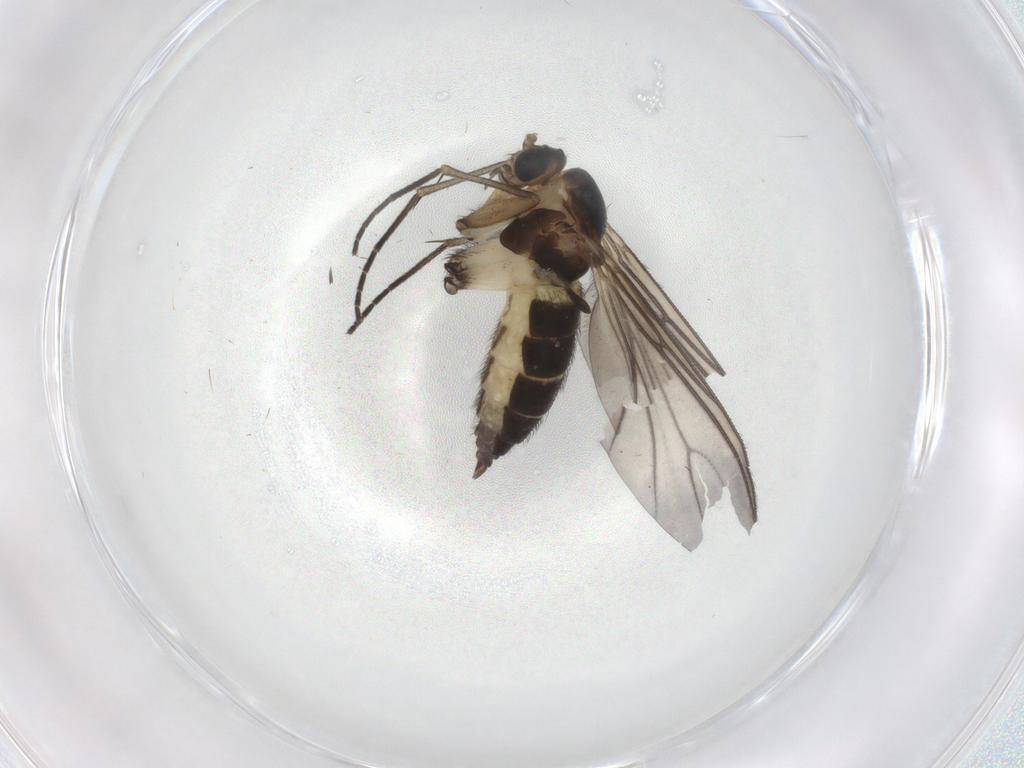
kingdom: Animalia
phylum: Arthropoda
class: Insecta
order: Diptera
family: Sciaridae
